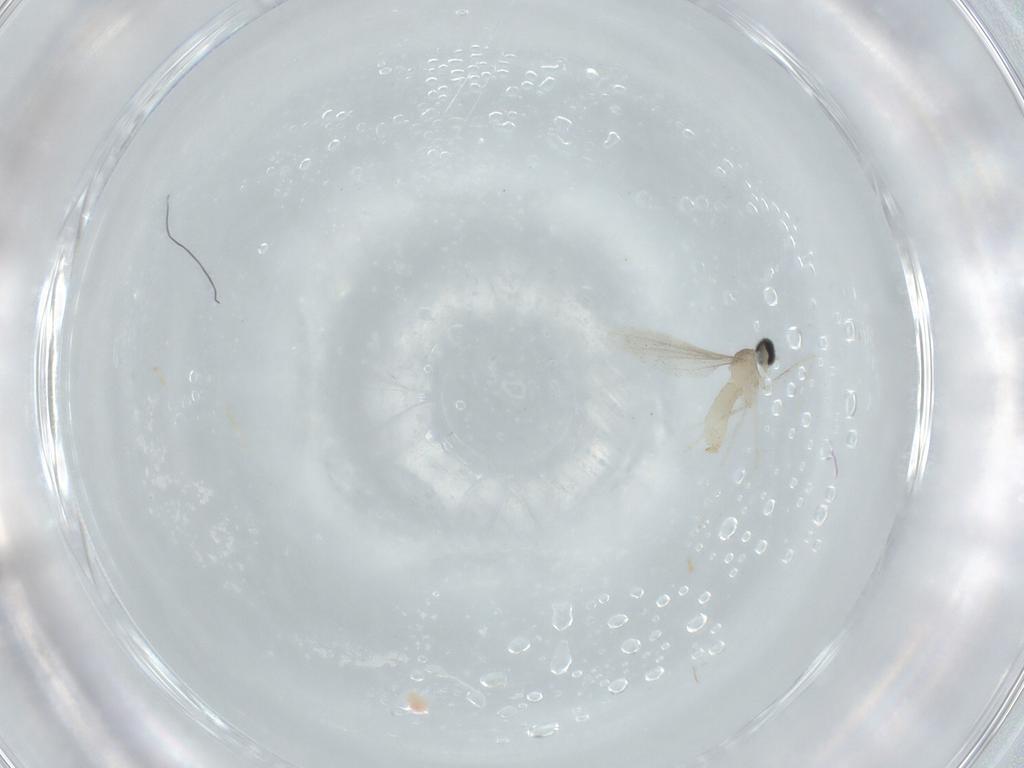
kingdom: Animalia
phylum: Arthropoda
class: Insecta
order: Diptera
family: Cecidomyiidae
